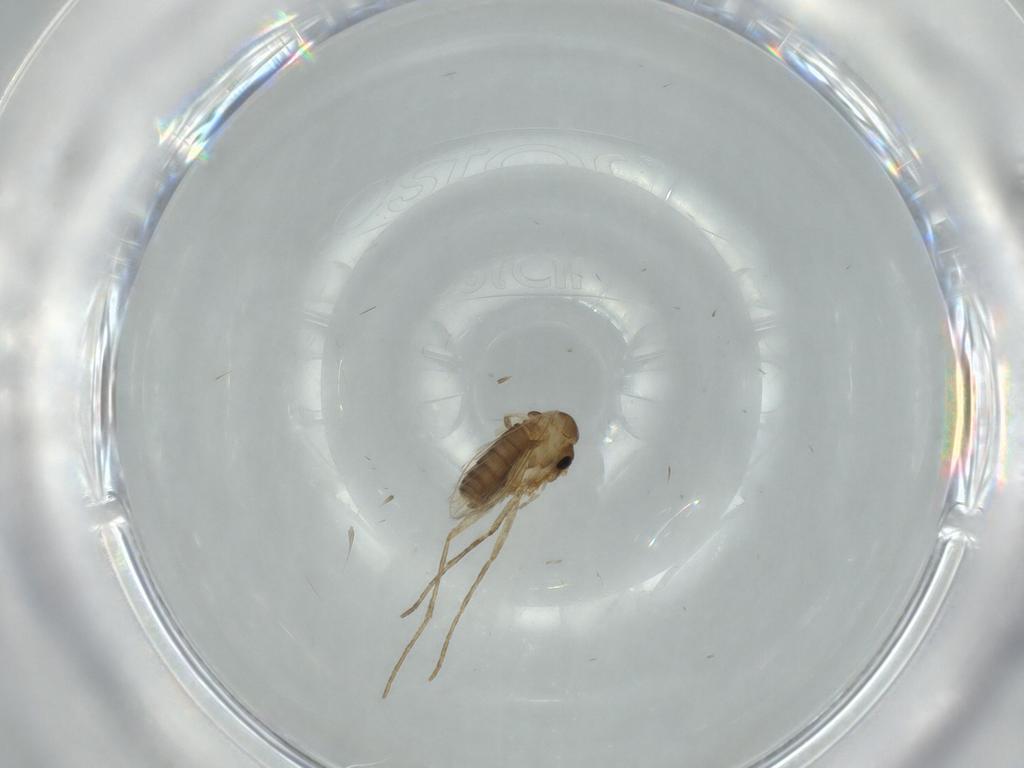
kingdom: Animalia
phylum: Arthropoda
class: Insecta
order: Diptera
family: Psychodidae
